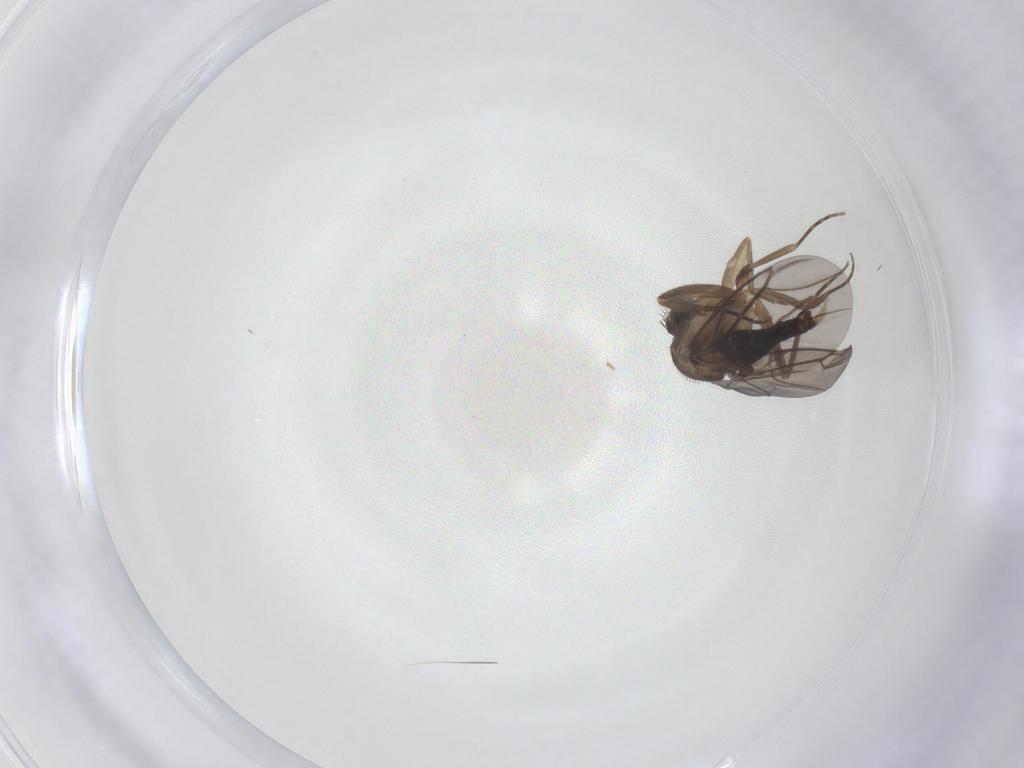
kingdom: Animalia
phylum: Arthropoda
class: Insecta
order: Diptera
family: Phoridae
